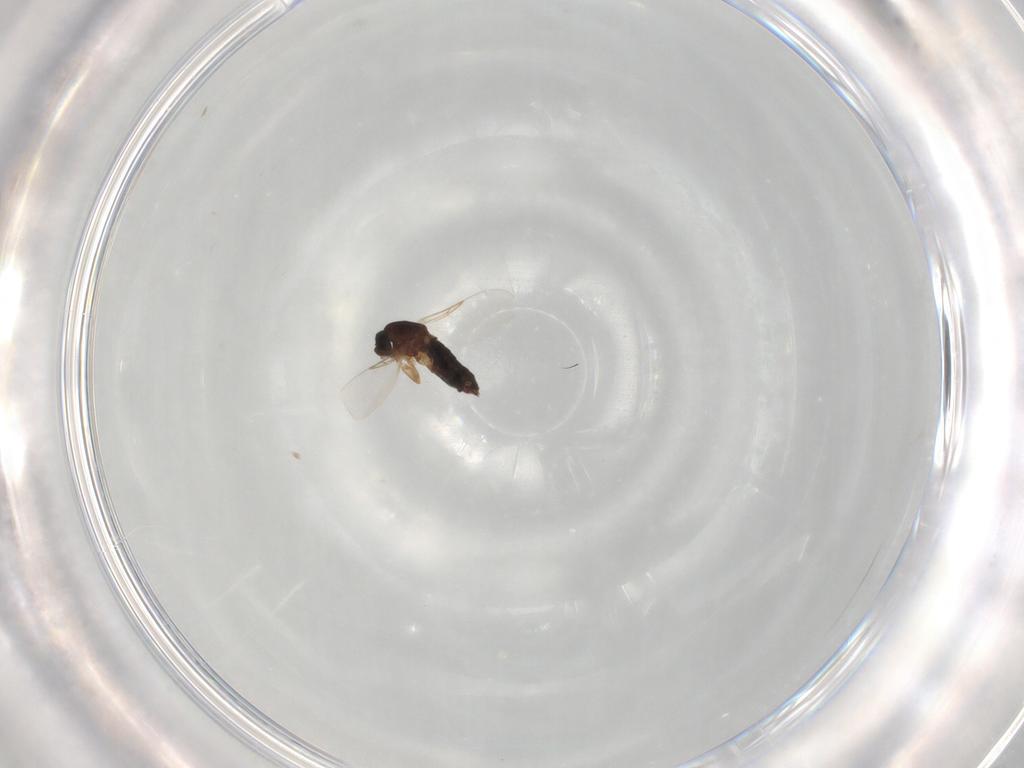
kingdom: Animalia
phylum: Arthropoda
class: Insecta
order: Diptera
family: Scatopsidae
